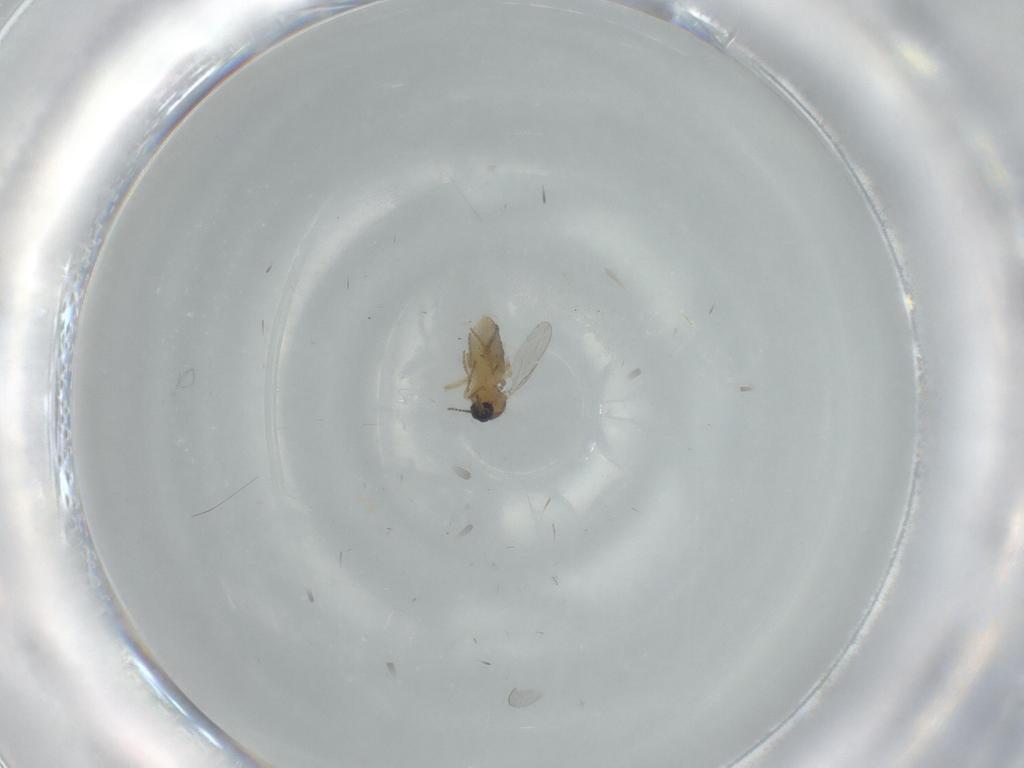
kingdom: Animalia
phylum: Arthropoda
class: Insecta
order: Diptera
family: Ceratopogonidae
